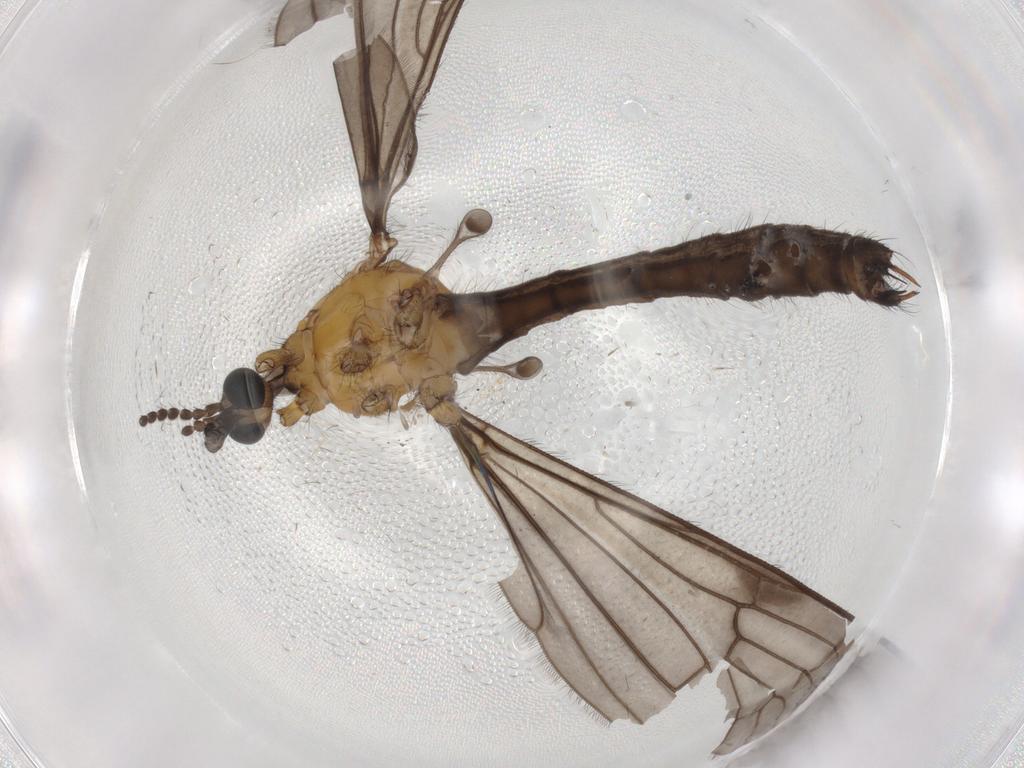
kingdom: Animalia
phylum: Arthropoda
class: Insecta
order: Diptera
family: Limoniidae
